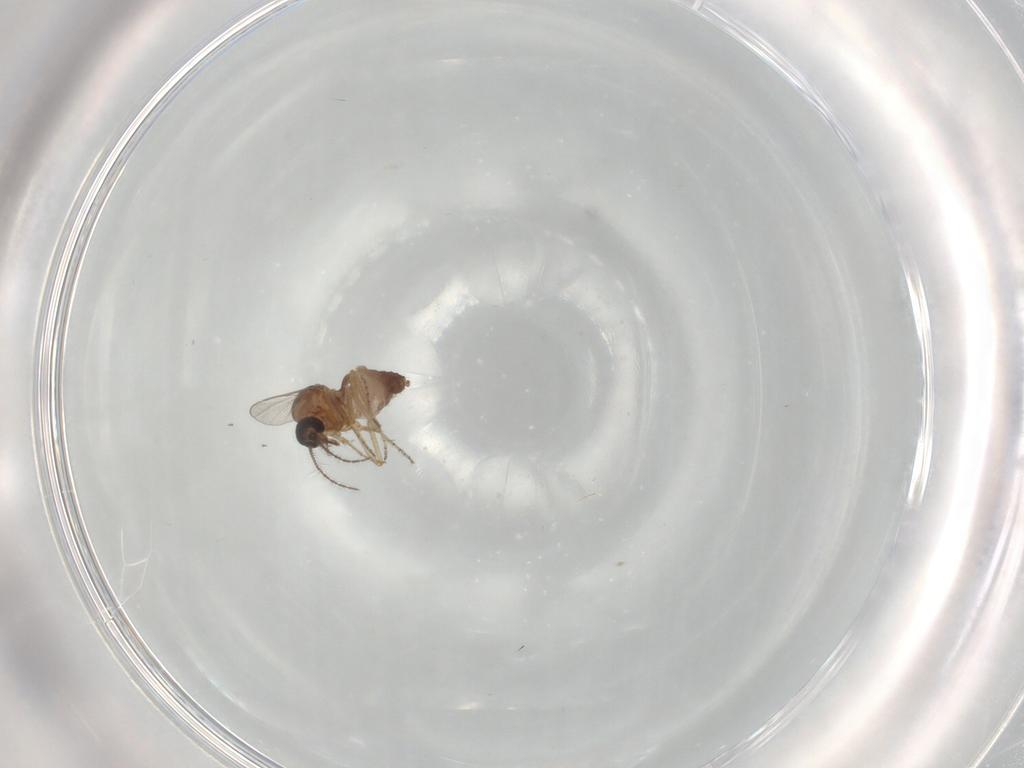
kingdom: Animalia
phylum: Arthropoda
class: Insecta
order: Diptera
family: Ceratopogonidae
